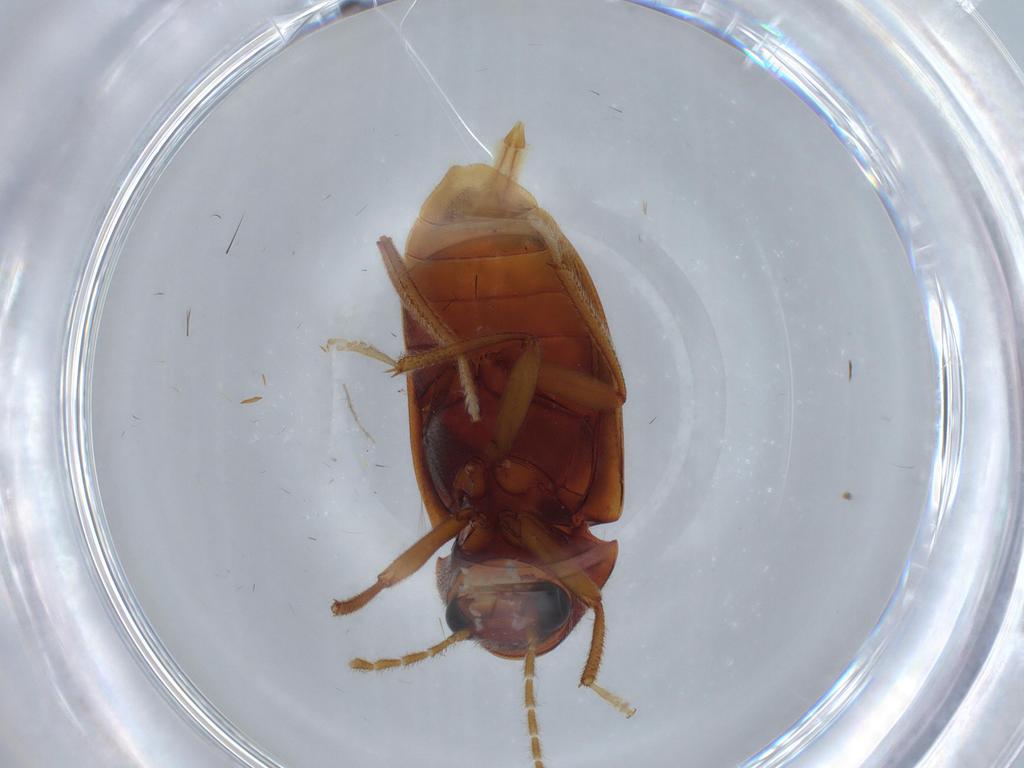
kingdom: Animalia
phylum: Arthropoda
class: Insecta
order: Coleoptera
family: Ptilodactylidae
